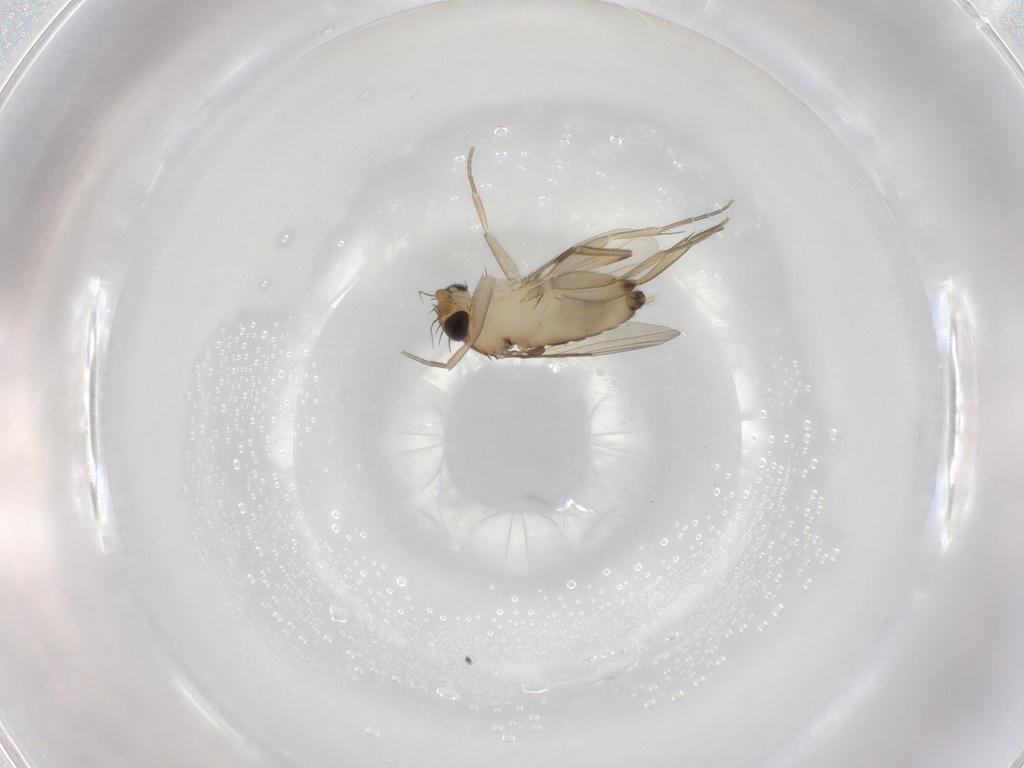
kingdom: Animalia
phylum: Arthropoda
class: Insecta
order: Diptera
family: Phoridae
